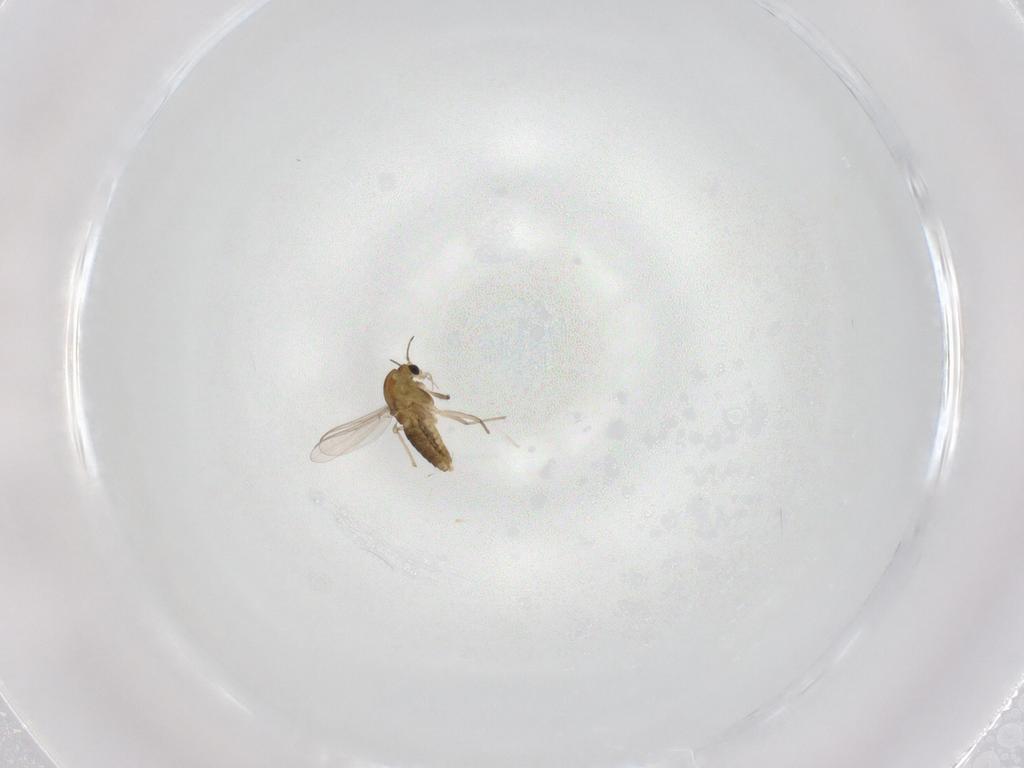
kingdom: Animalia
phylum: Arthropoda
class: Insecta
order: Diptera
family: Chironomidae
